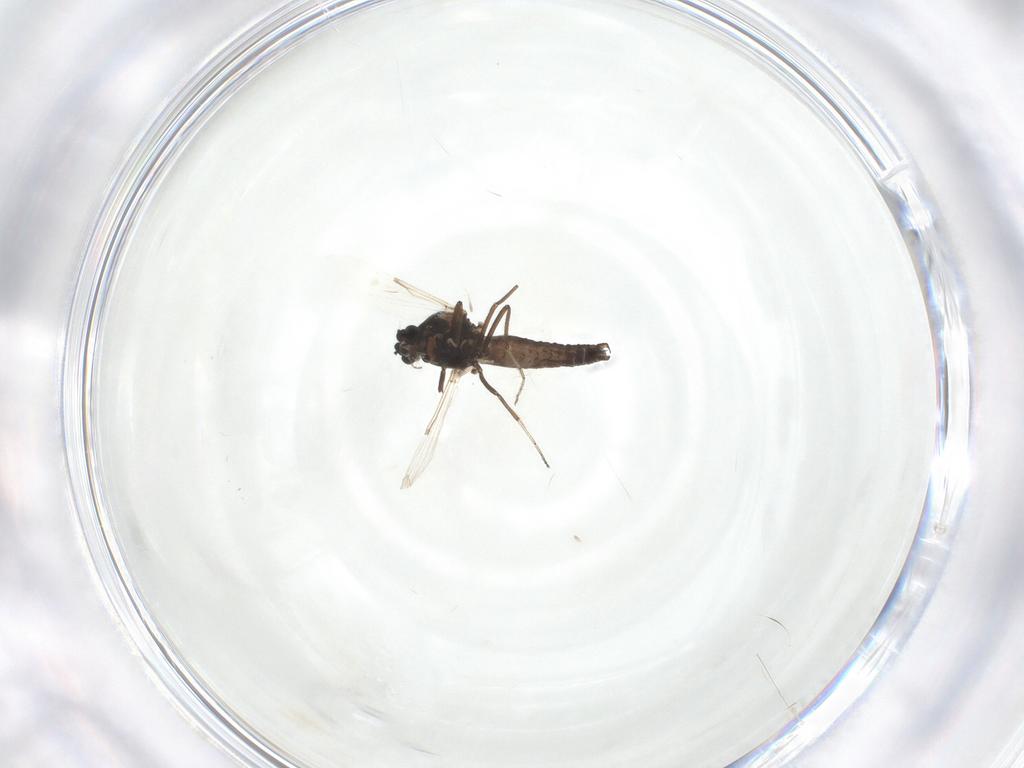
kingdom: Animalia
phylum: Arthropoda
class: Insecta
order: Diptera
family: Ceratopogonidae
